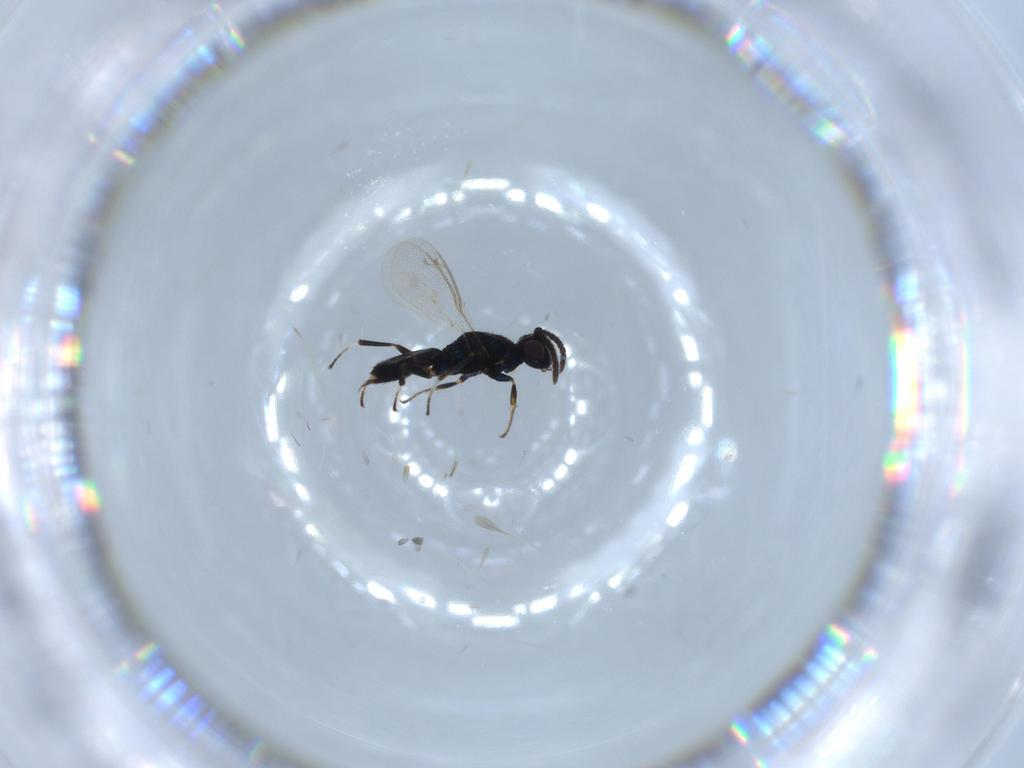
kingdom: Animalia
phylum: Arthropoda
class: Insecta
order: Hymenoptera
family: Eupelmidae
